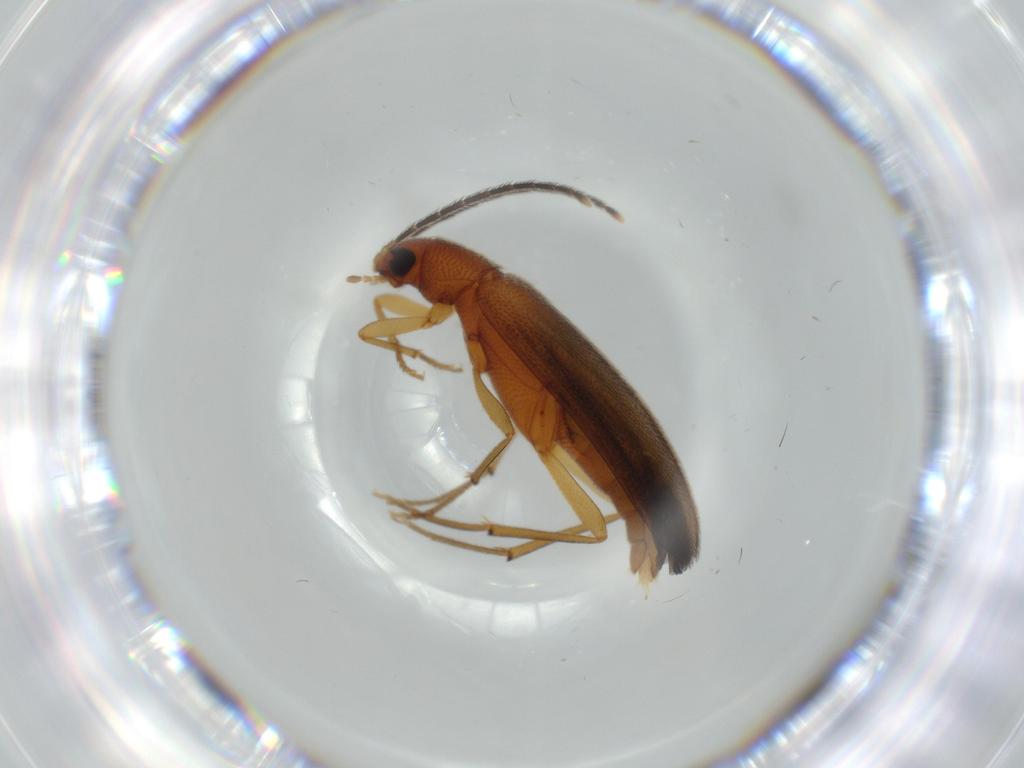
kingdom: Animalia
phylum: Arthropoda
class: Insecta
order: Coleoptera
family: Melandryidae
